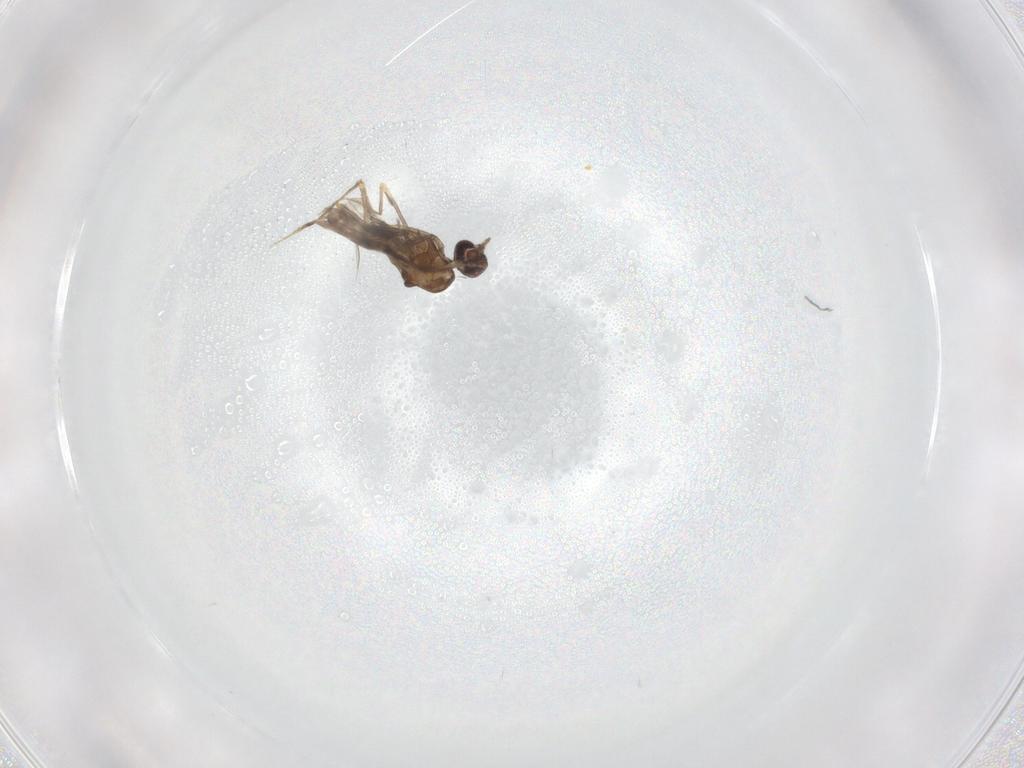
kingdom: Animalia
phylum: Arthropoda
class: Insecta
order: Diptera
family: Ceratopogonidae
